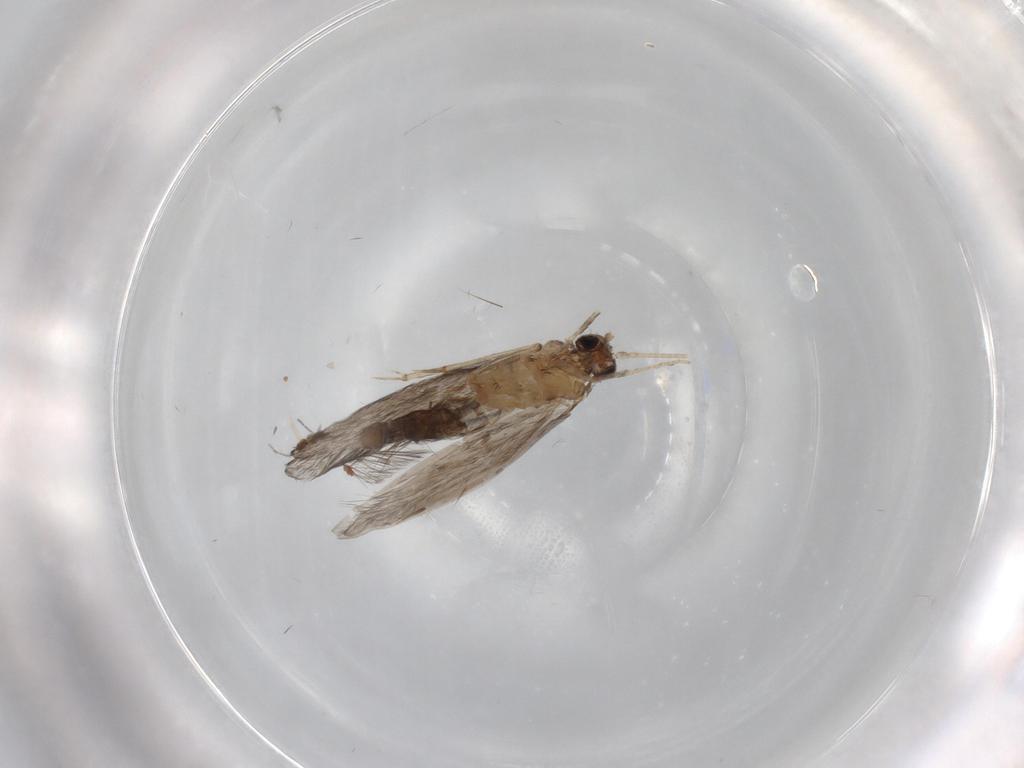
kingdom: Animalia
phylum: Arthropoda
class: Insecta
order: Trichoptera
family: Hydroptilidae
